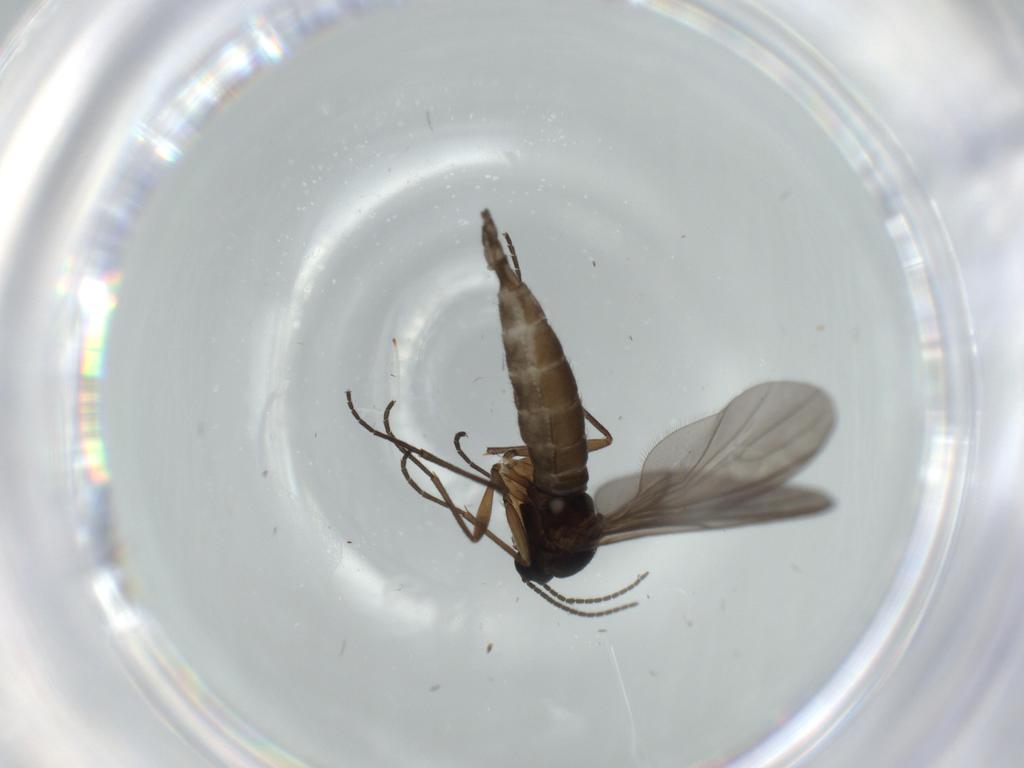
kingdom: Animalia
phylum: Arthropoda
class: Insecta
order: Diptera
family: Sciaridae
